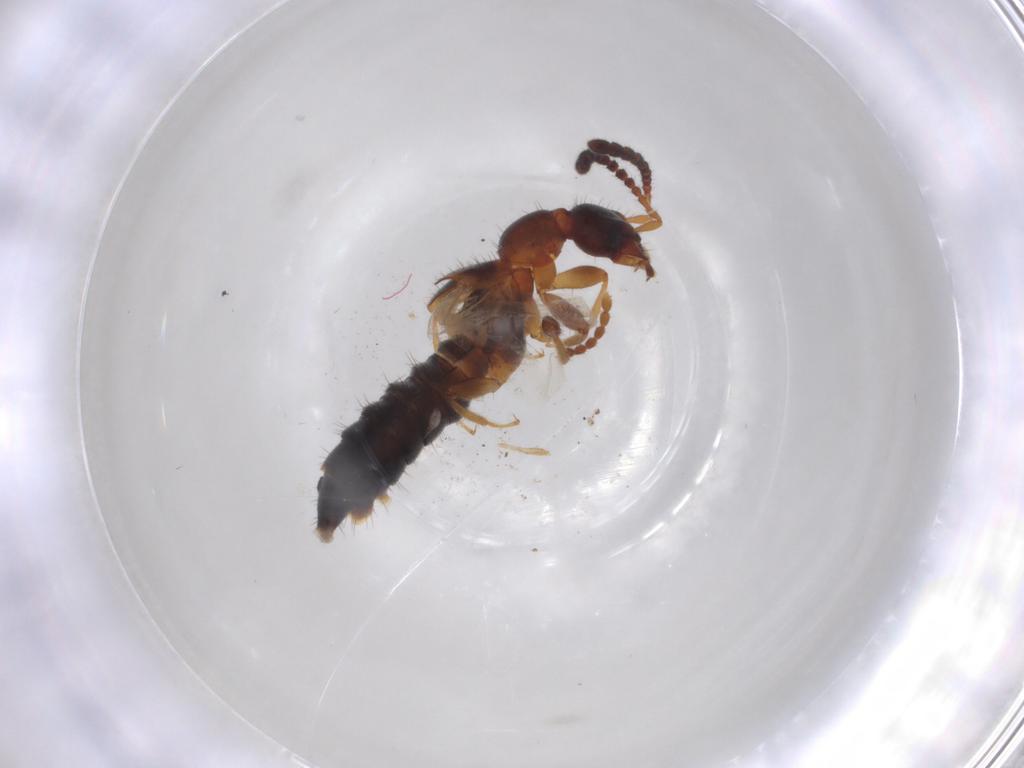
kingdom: Animalia
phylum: Arthropoda
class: Insecta
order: Coleoptera
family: Staphylinidae
